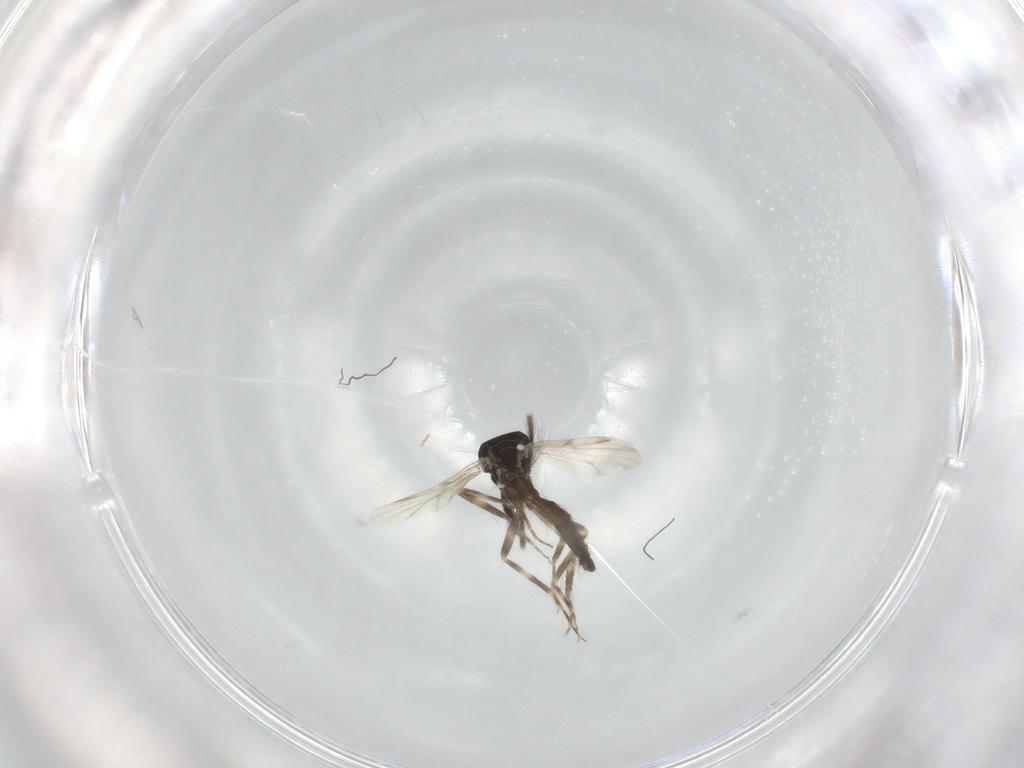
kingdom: Animalia
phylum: Arthropoda
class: Insecta
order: Diptera
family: Ceratopogonidae
